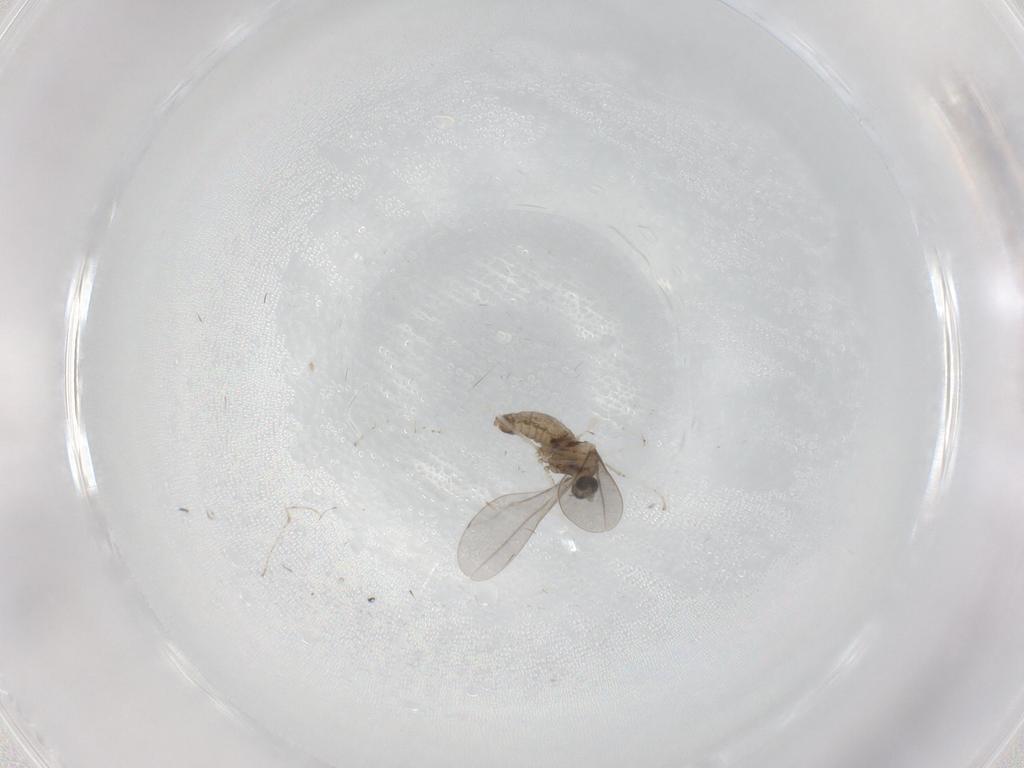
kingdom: Animalia
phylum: Arthropoda
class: Insecta
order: Diptera
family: Cecidomyiidae
